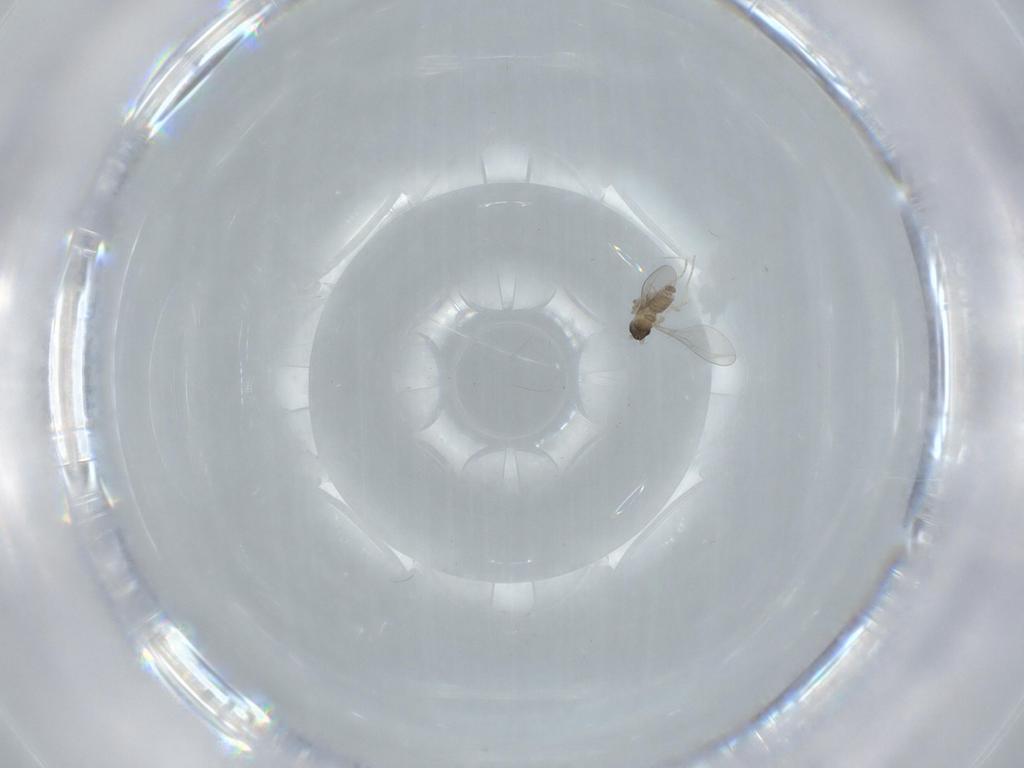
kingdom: Animalia
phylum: Arthropoda
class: Insecta
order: Diptera
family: Cecidomyiidae
